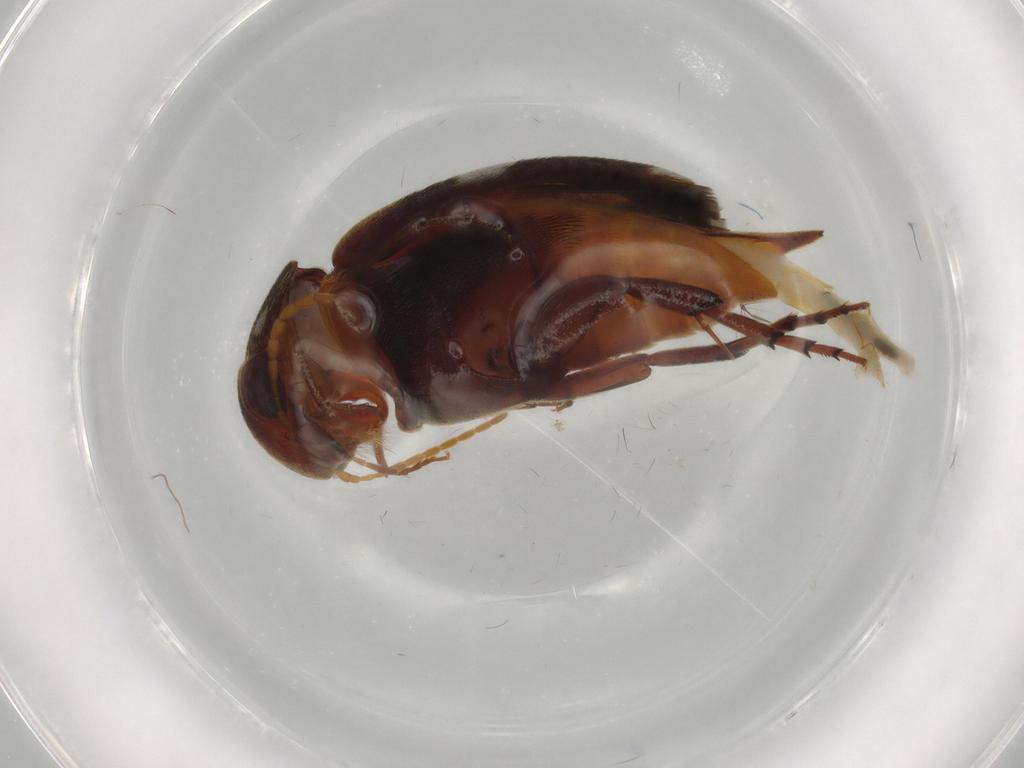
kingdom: Animalia
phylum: Arthropoda
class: Insecta
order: Coleoptera
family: Mordellidae
